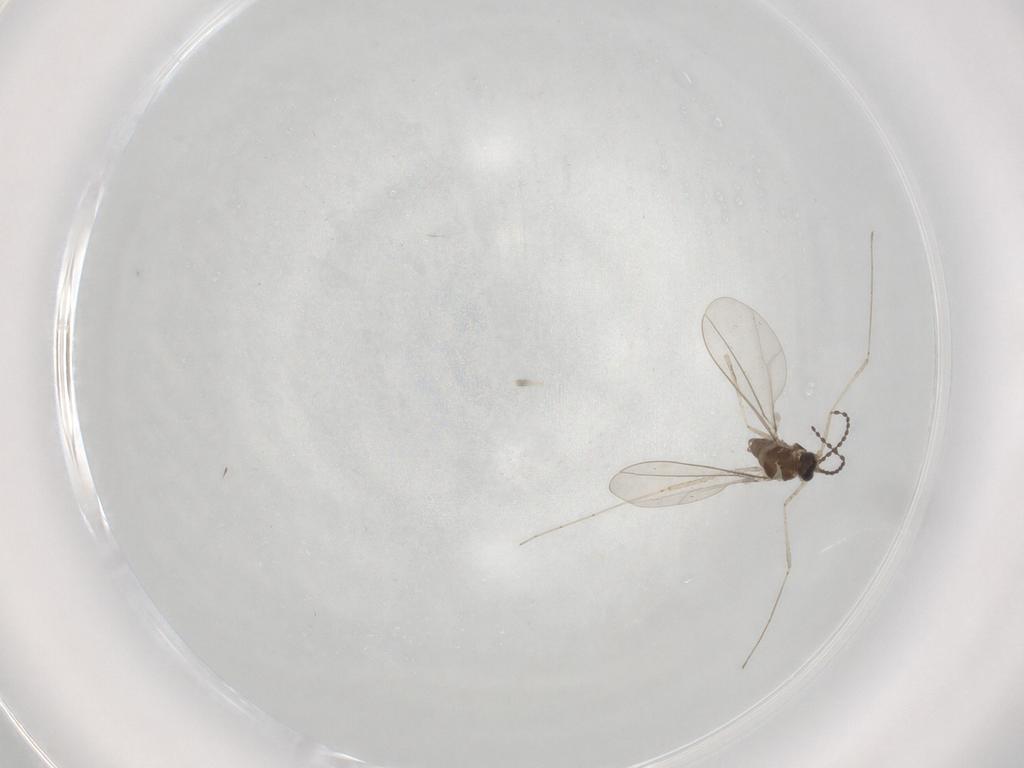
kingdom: Animalia
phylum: Arthropoda
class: Insecta
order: Diptera
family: Cecidomyiidae
